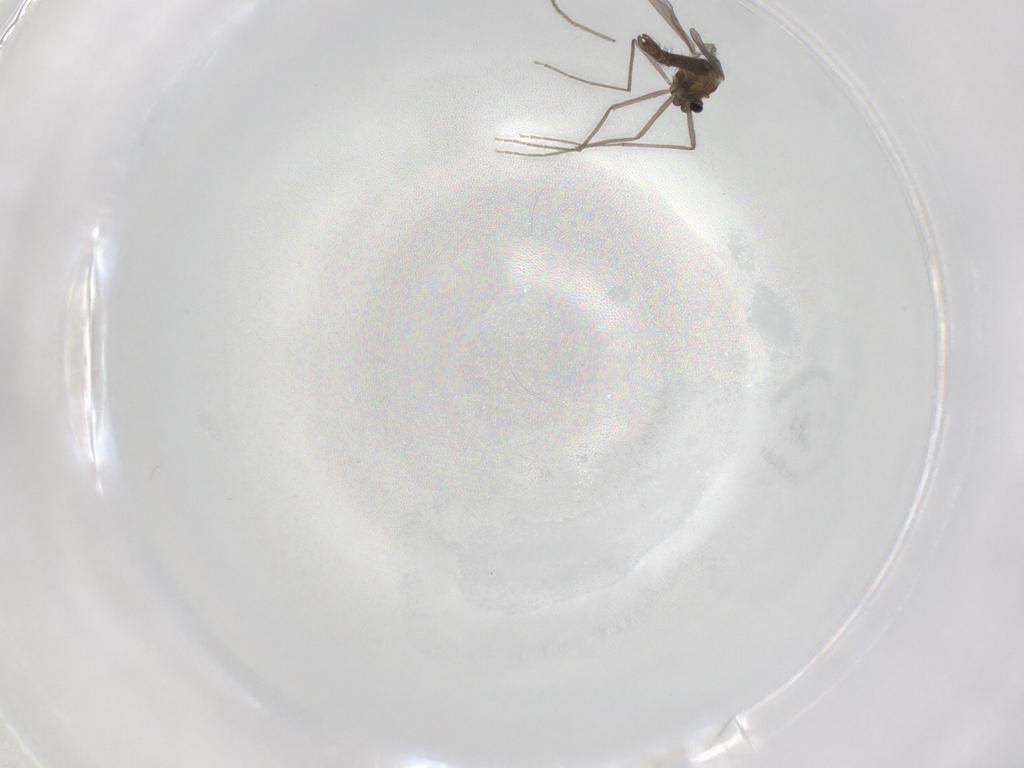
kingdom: Animalia
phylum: Arthropoda
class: Insecta
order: Diptera
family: Chironomidae
